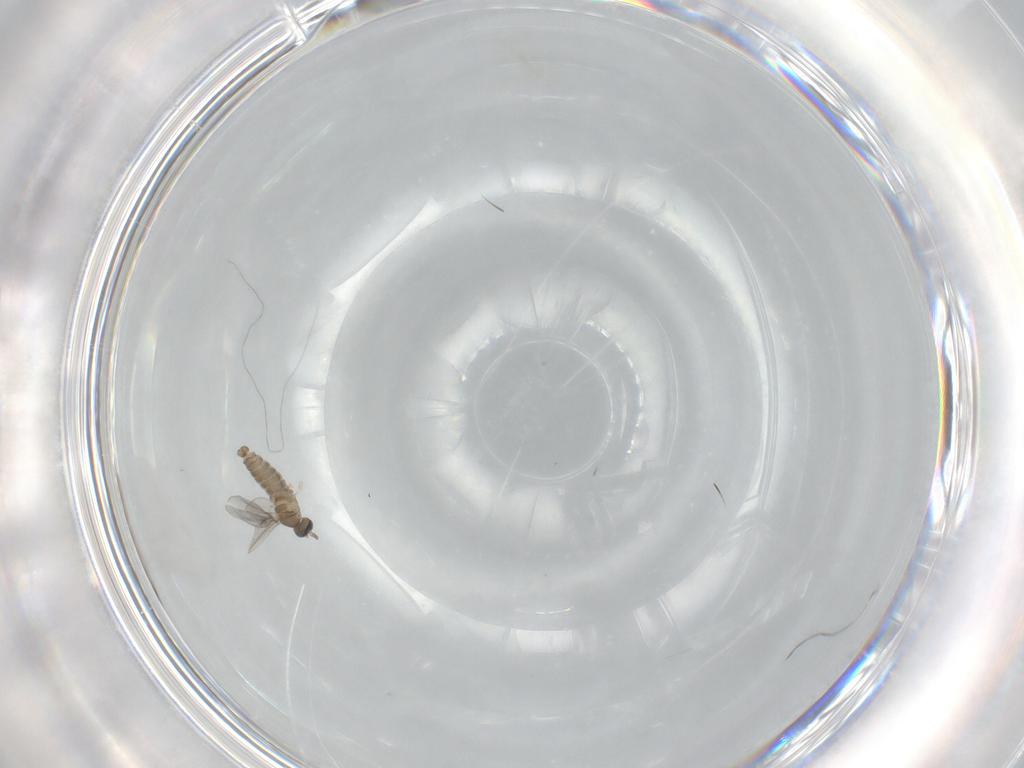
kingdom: Animalia
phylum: Arthropoda
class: Insecta
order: Diptera
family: Cecidomyiidae
